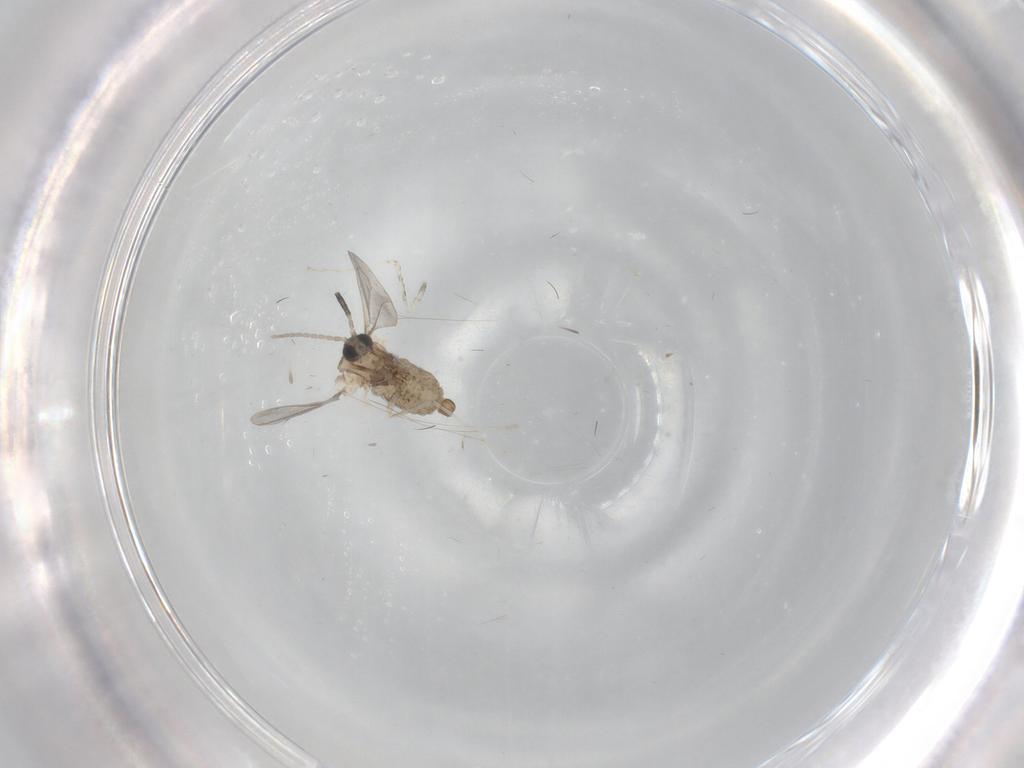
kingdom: Animalia
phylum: Arthropoda
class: Insecta
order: Diptera
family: Cecidomyiidae
